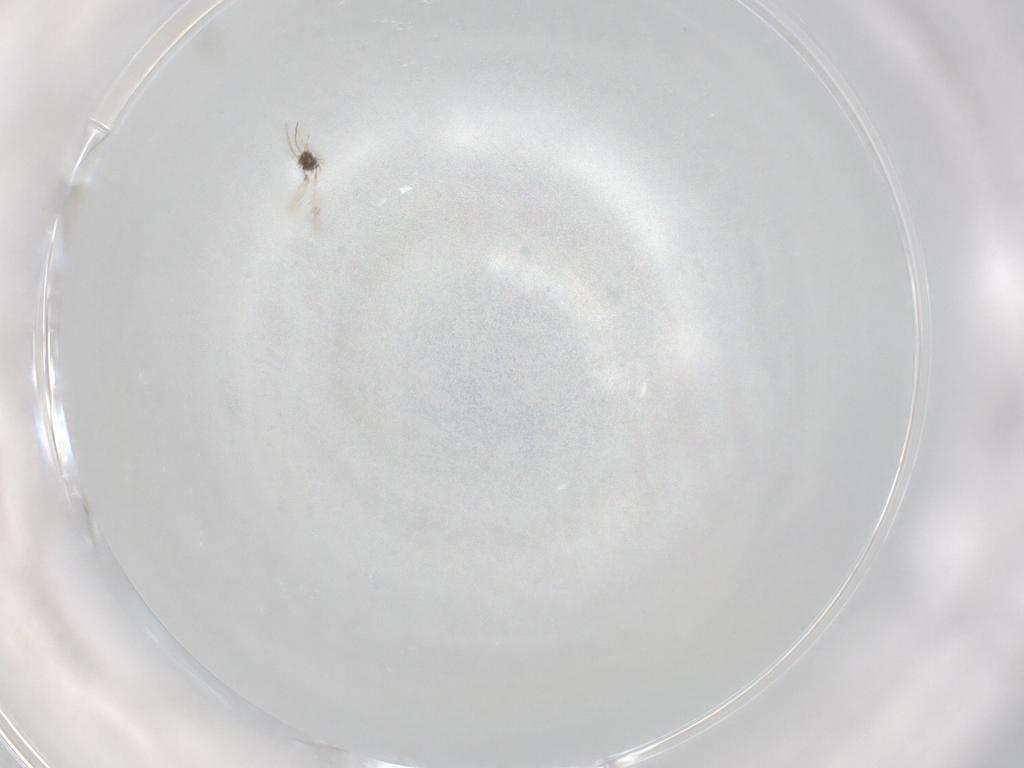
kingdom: Animalia
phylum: Arthropoda
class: Insecta
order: Hymenoptera
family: Mymaridae
